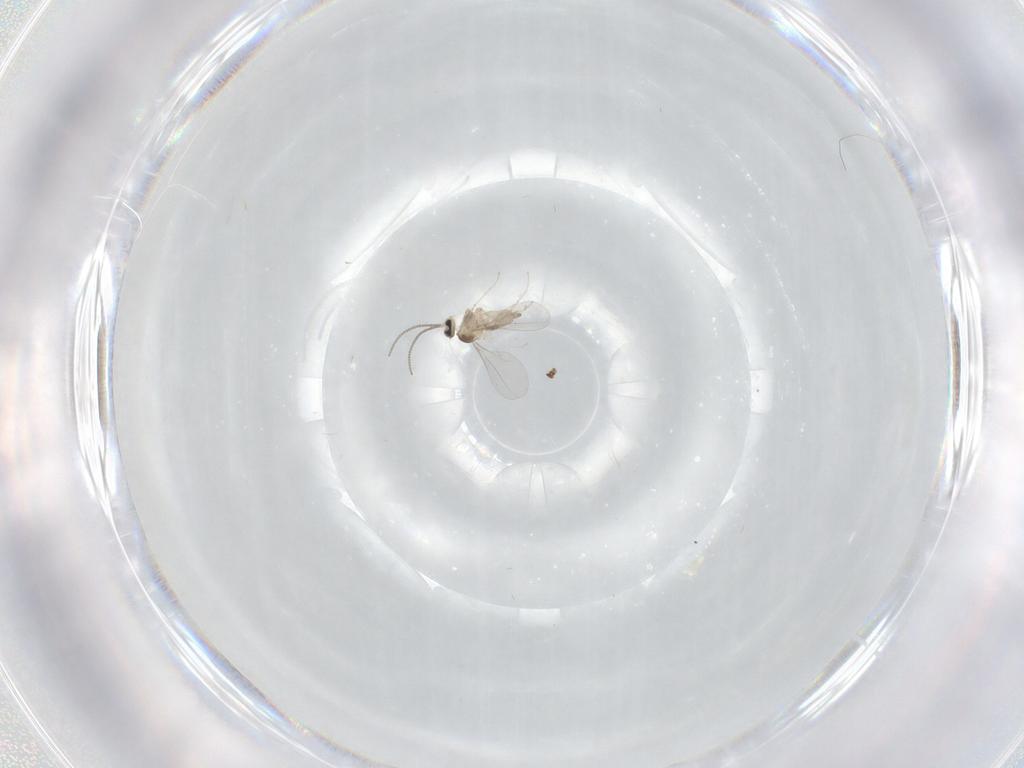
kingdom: Animalia
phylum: Arthropoda
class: Insecta
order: Diptera
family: Cecidomyiidae
